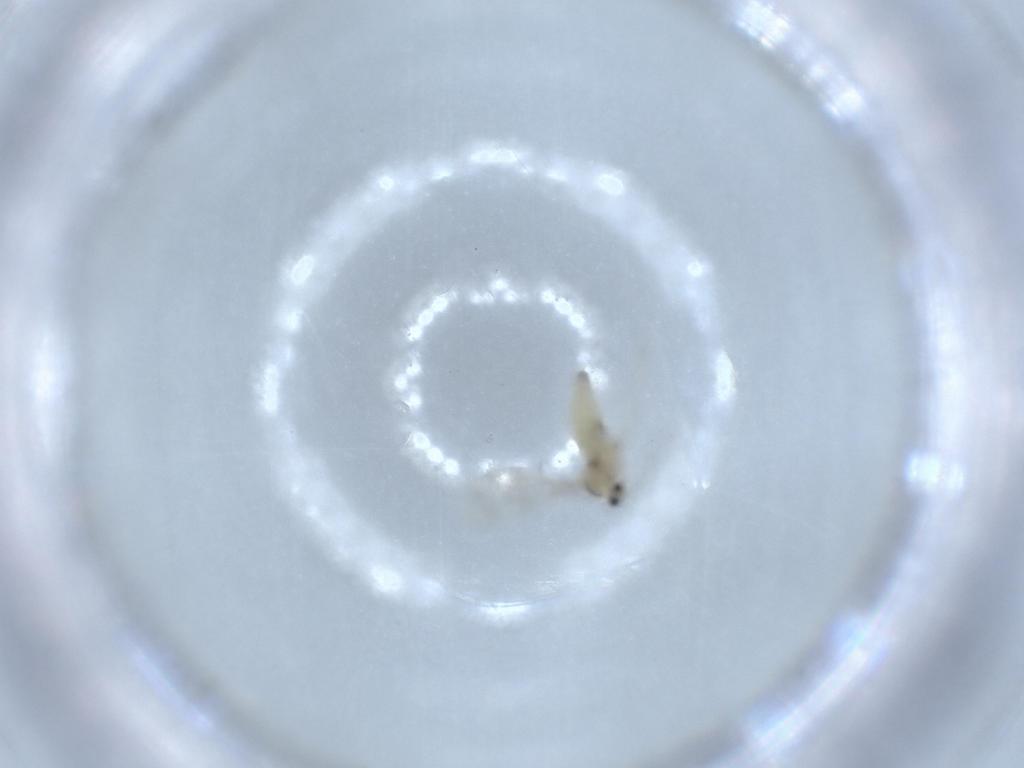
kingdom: Animalia
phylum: Arthropoda
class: Insecta
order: Diptera
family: Cecidomyiidae
